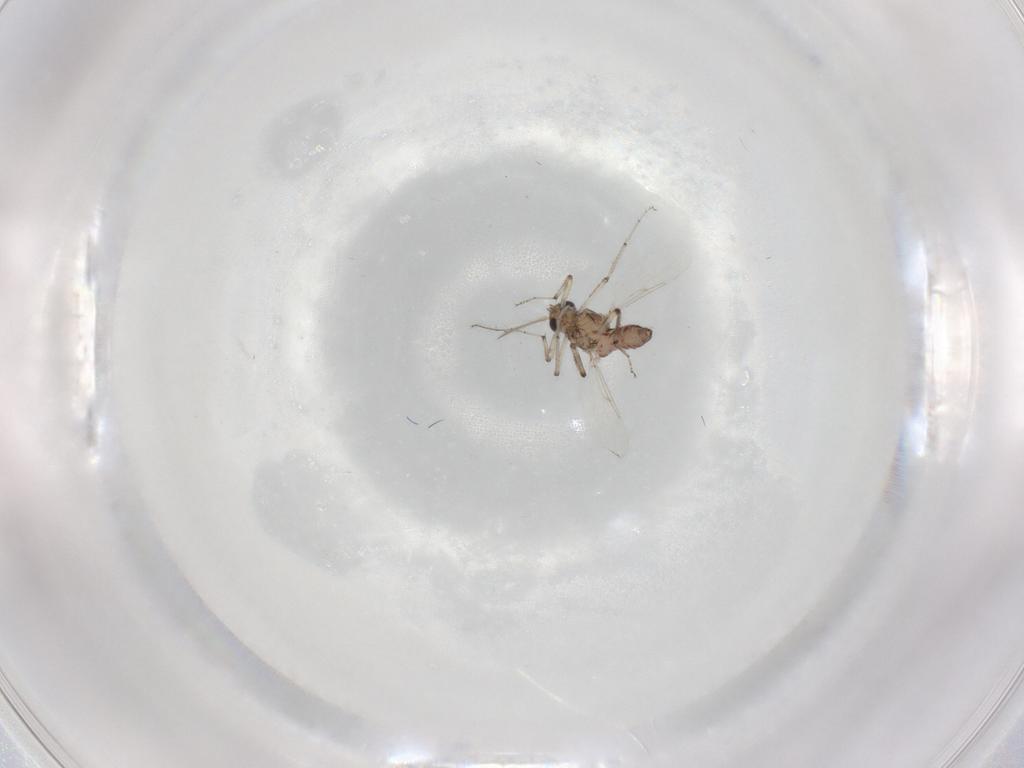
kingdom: Animalia
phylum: Arthropoda
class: Insecta
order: Diptera
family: Ceratopogonidae
